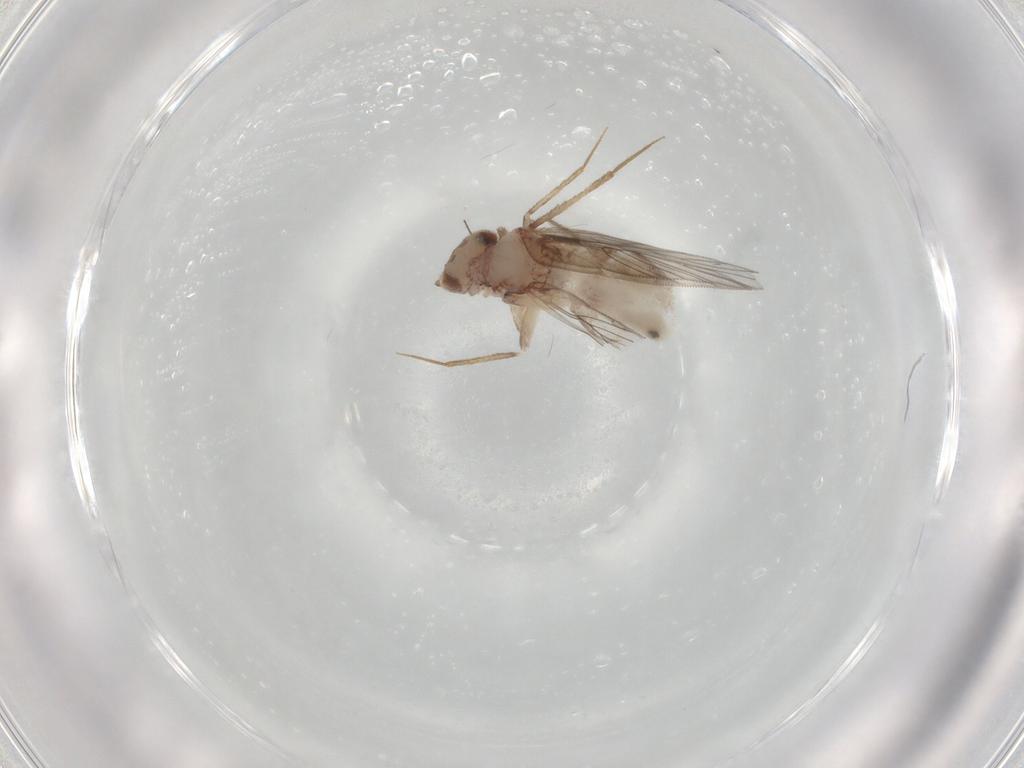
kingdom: Animalia
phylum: Arthropoda
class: Insecta
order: Psocodea
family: Lepidopsocidae
